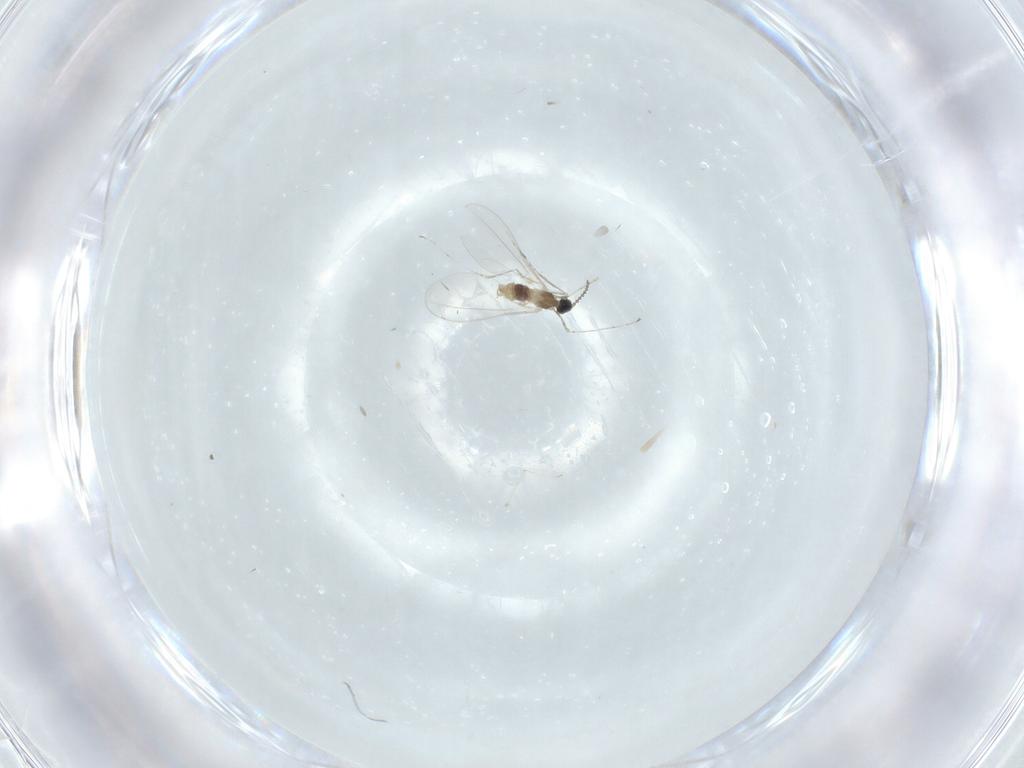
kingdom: Animalia
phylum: Arthropoda
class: Insecta
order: Diptera
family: Cecidomyiidae
